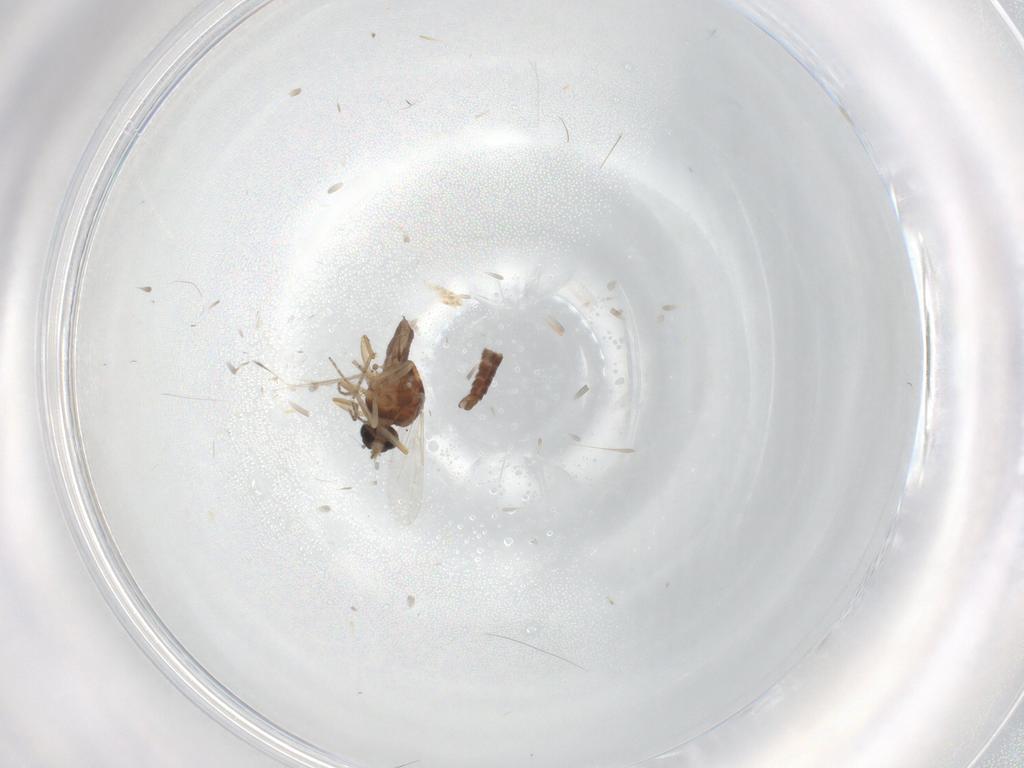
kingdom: Animalia
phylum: Arthropoda
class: Insecta
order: Diptera
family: Ceratopogonidae
